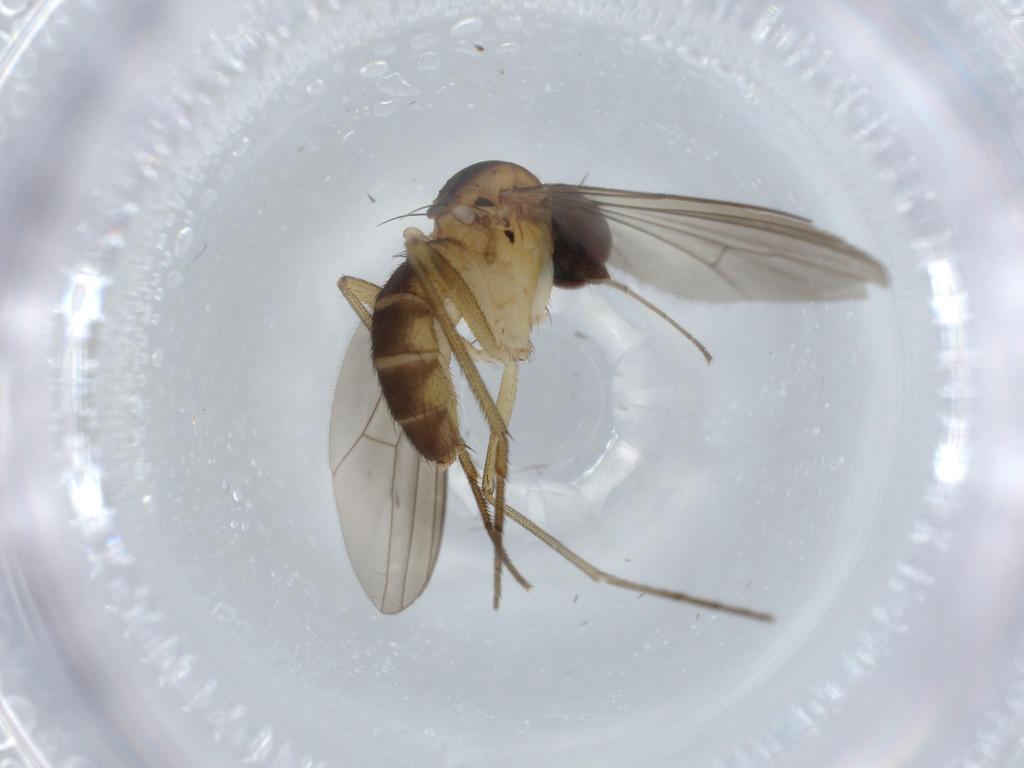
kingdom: Animalia
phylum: Arthropoda
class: Insecta
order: Diptera
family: Dolichopodidae
